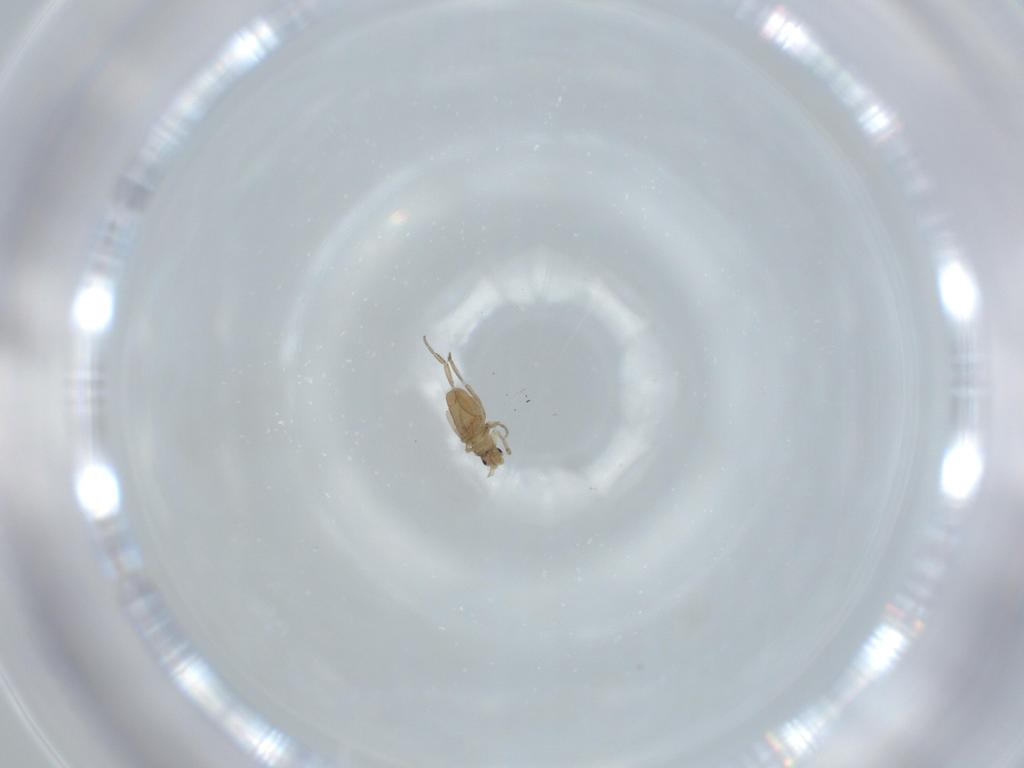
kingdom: Animalia
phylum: Arthropoda
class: Insecta
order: Diptera
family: Phoridae
